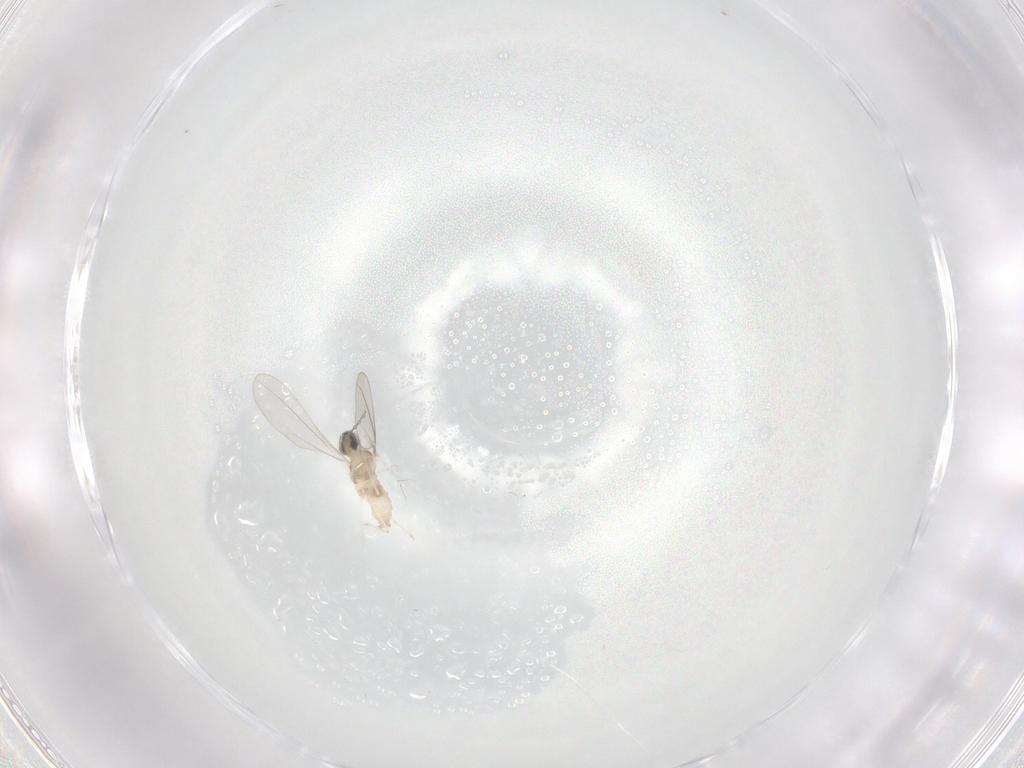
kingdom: Animalia
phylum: Arthropoda
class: Insecta
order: Diptera
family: Cecidomyiidae
